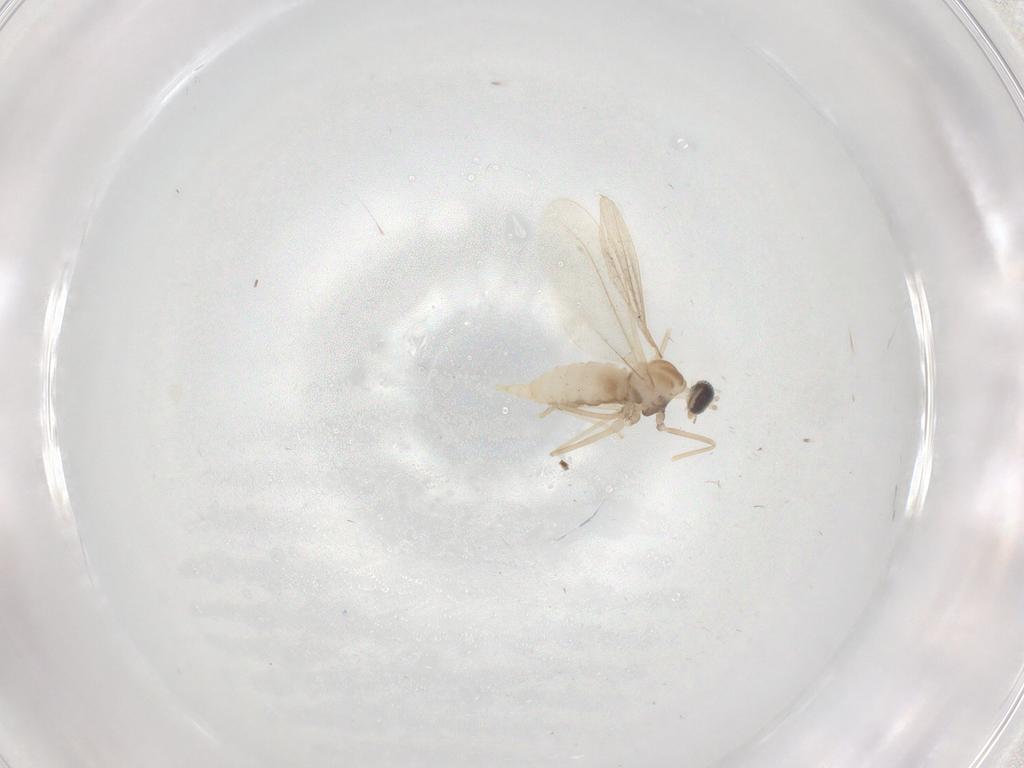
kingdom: Animalia
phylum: Arthropoda
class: Insecta
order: Diptera
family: Cecidomyiidae
